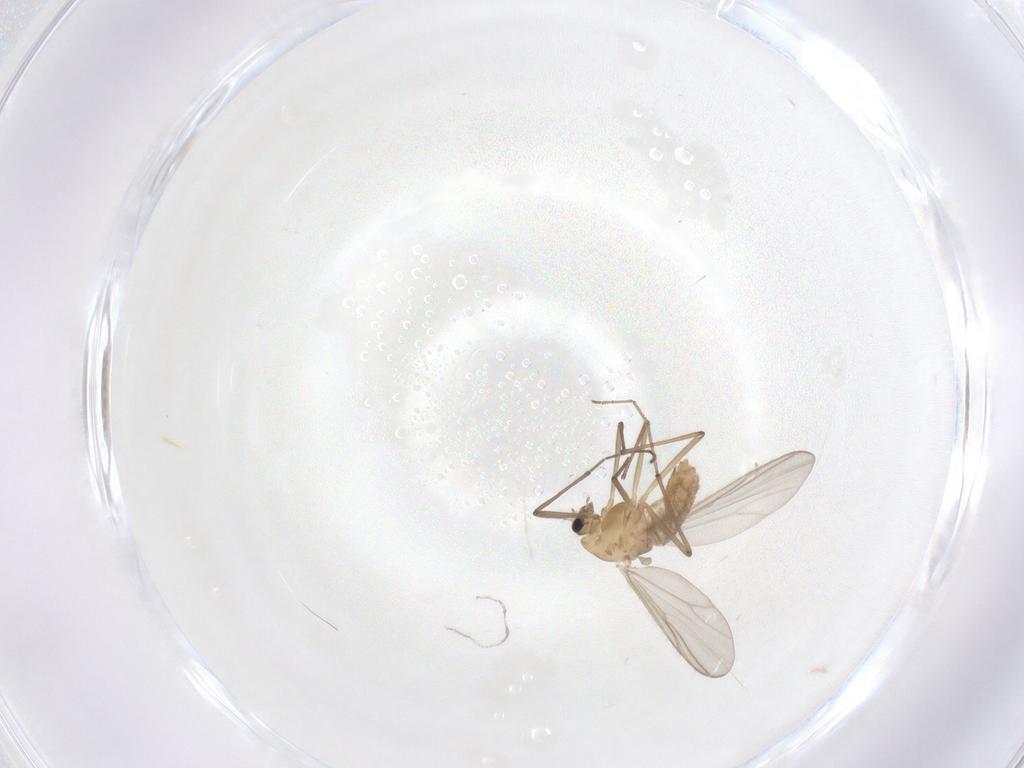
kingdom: Animalia
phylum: Arthropoda
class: Insecta
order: Diptera
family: Chironomidae
